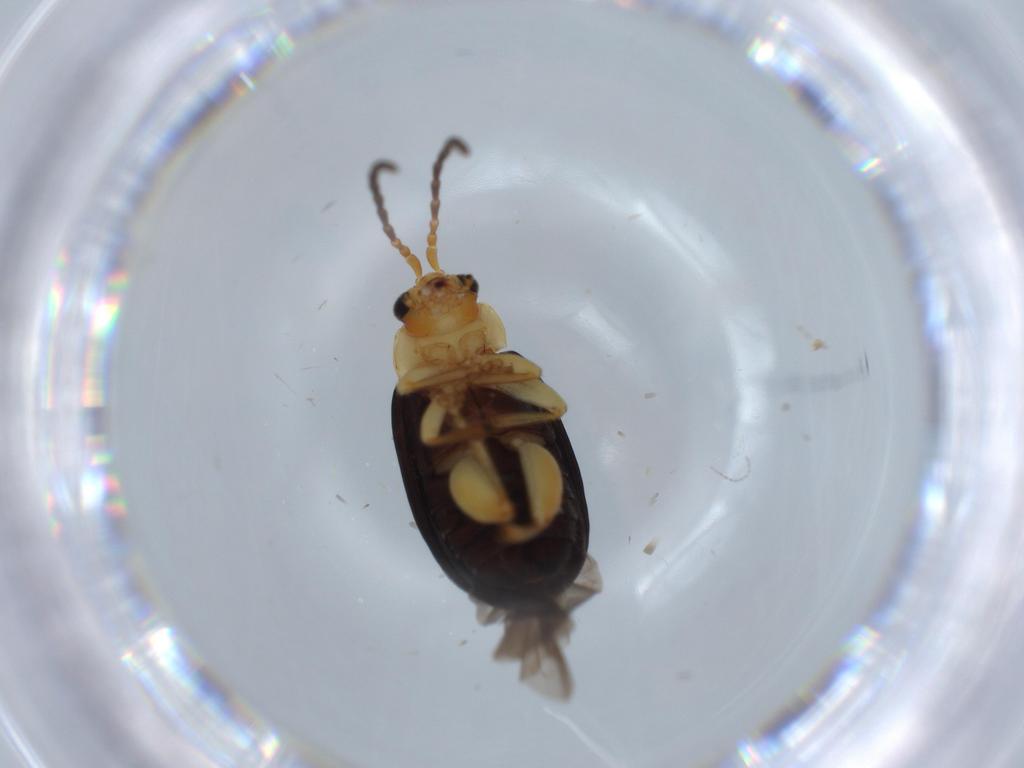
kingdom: Animalia
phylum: Arthropoda
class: Insecta
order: Coleoptera
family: Chrysomelidae
